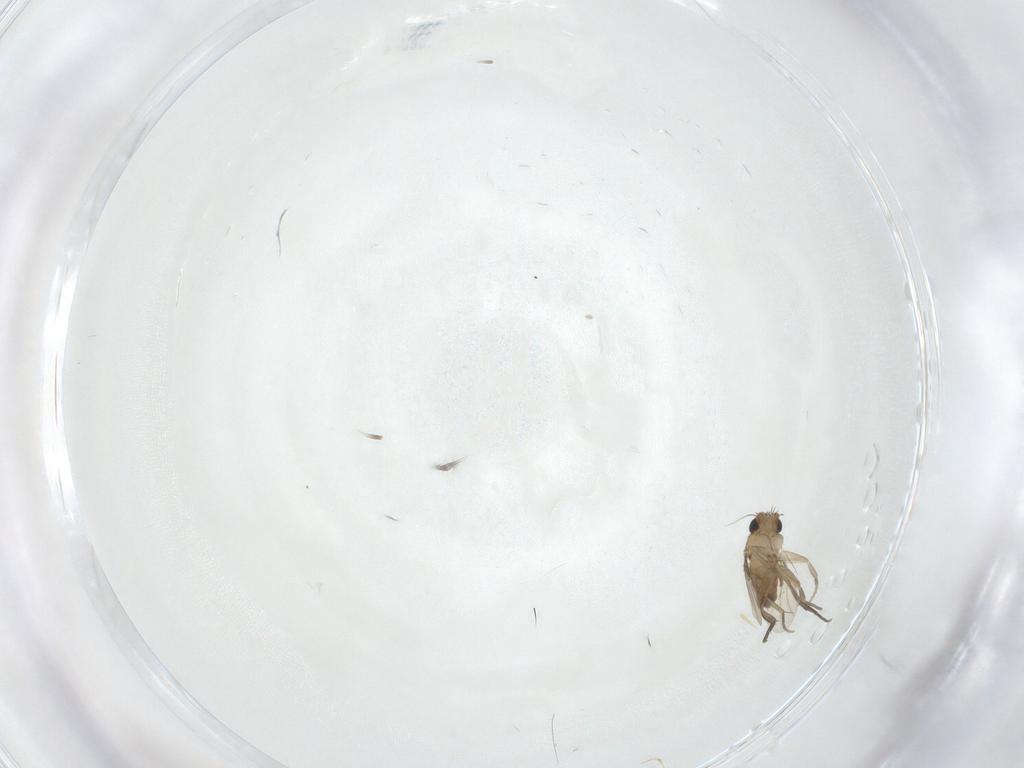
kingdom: Animalia
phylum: Arthropoda
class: Insecta
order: Diptera
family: Phoridae
